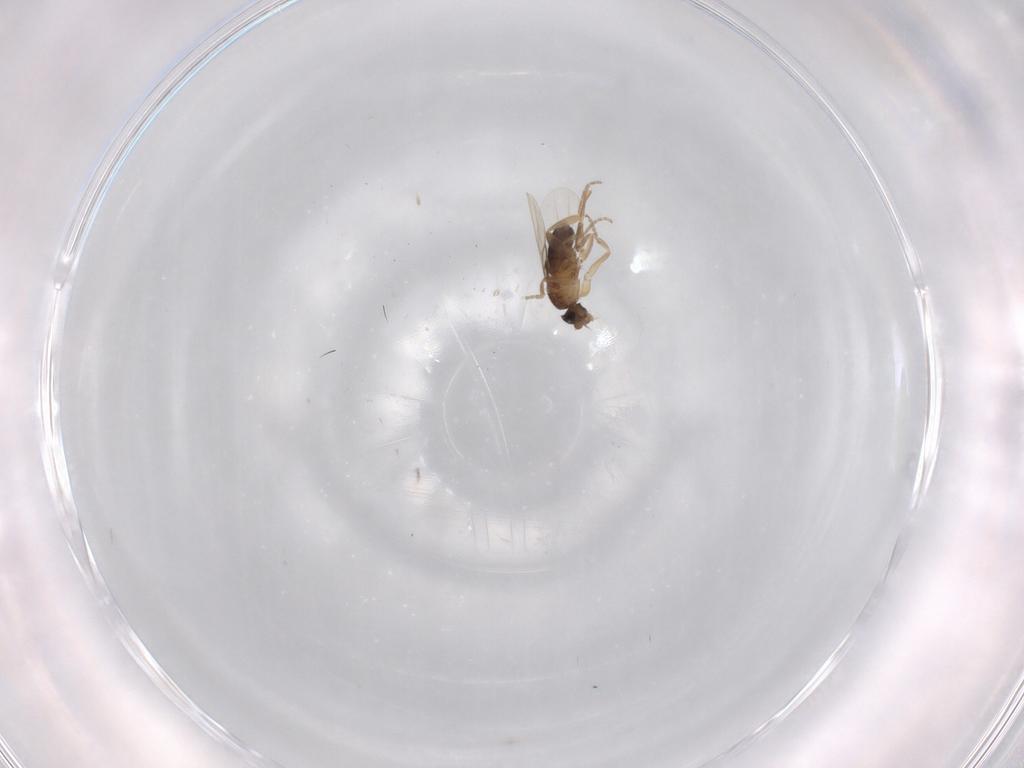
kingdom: Animalia
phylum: Arthropoda
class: Insecta
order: Diptera
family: Phoridae
